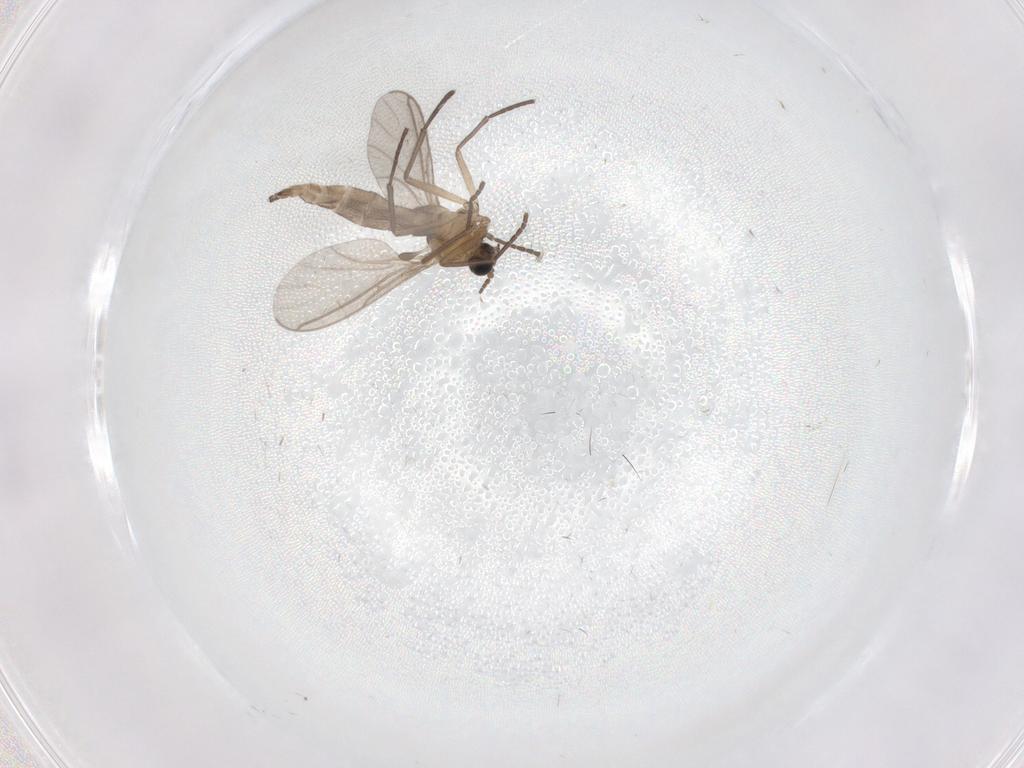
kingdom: Animalia
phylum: Arthropoda
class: Insecta
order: Diptera
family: Sciaridae
